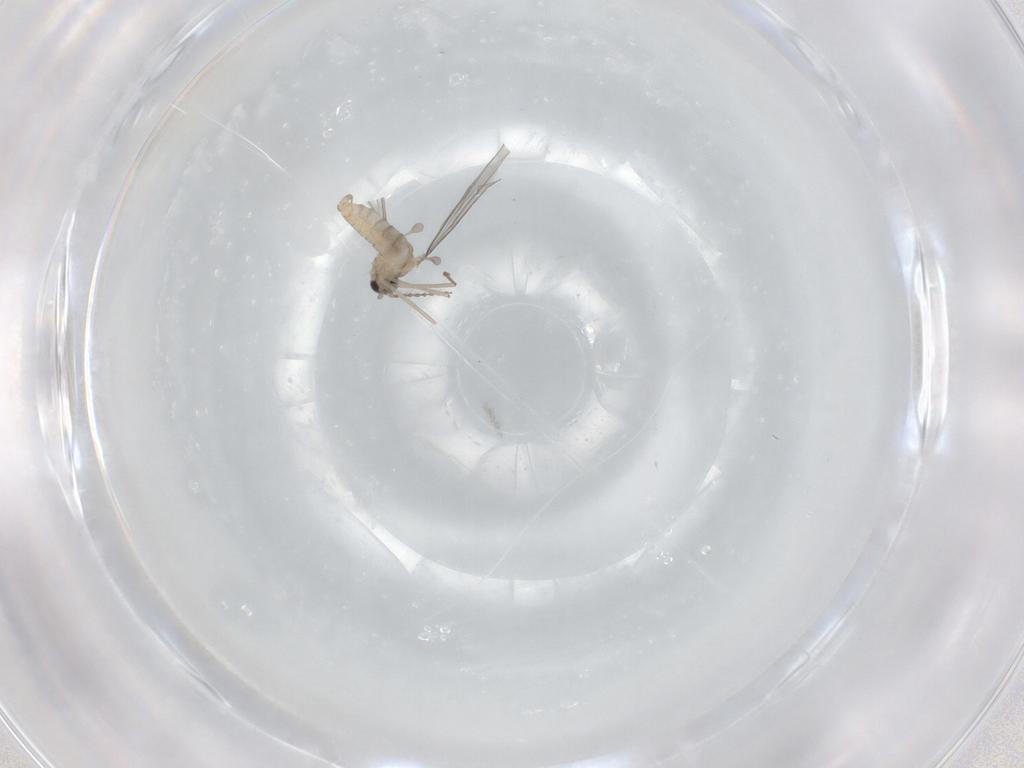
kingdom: Animalia
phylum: Arthropoda
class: Insecta
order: Diptera
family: Cecidomyiidae
